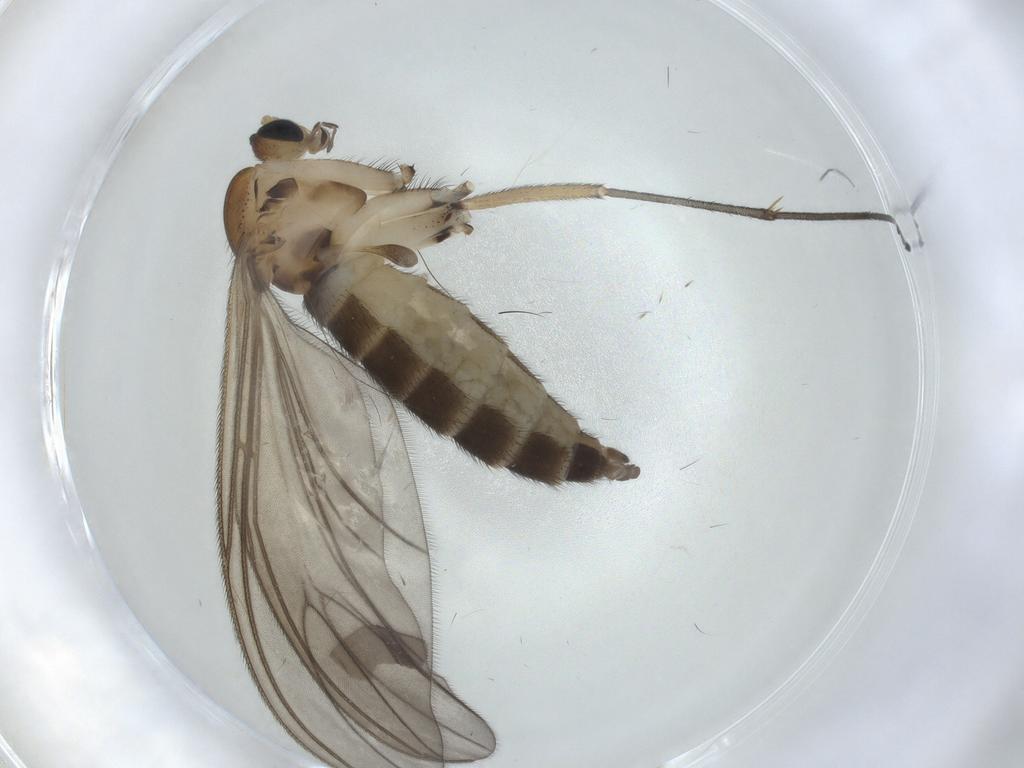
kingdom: Animalia
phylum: Arthropoda
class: Insecta
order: Diptera
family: Sciaridae
